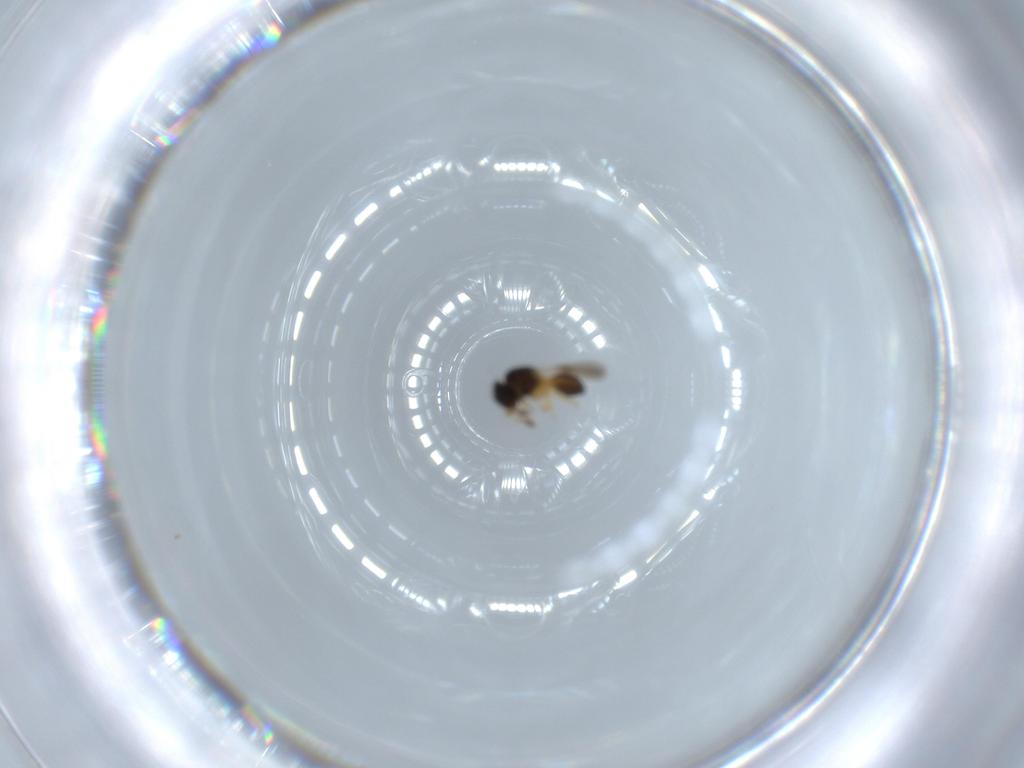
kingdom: Animalia
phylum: Arthropoda
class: Insecta
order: Hymenoptera
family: Scelionidae
